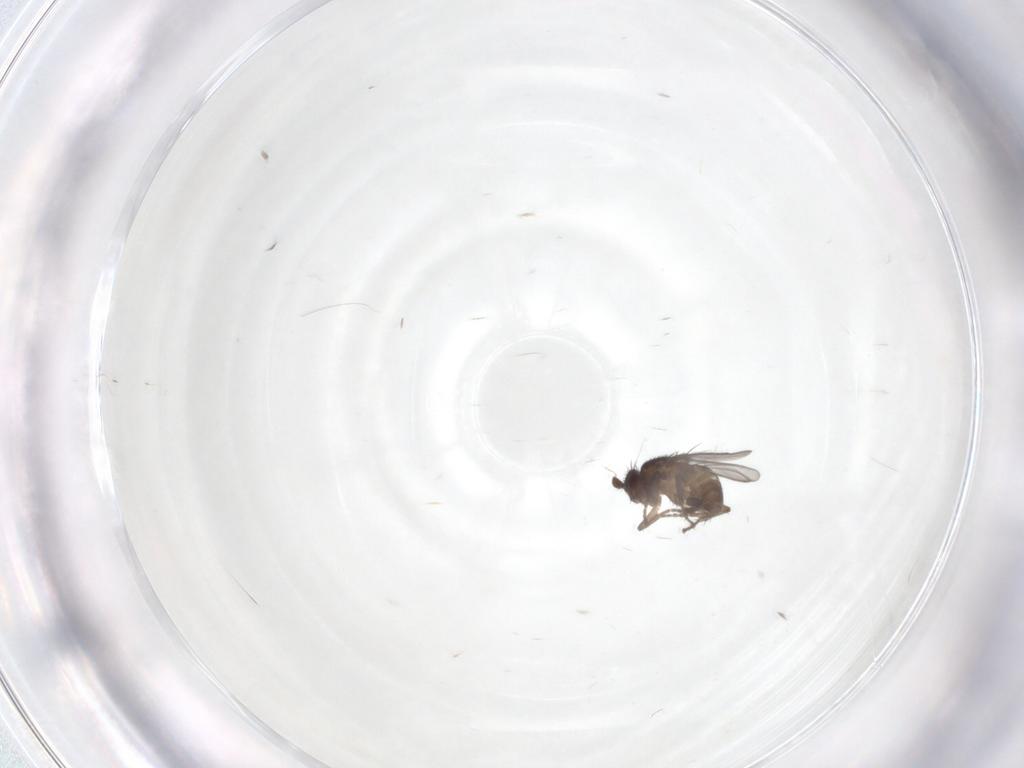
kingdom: Animalia
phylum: Arthropoda
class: Insecta
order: Diptera
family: Sphaeroceridae
